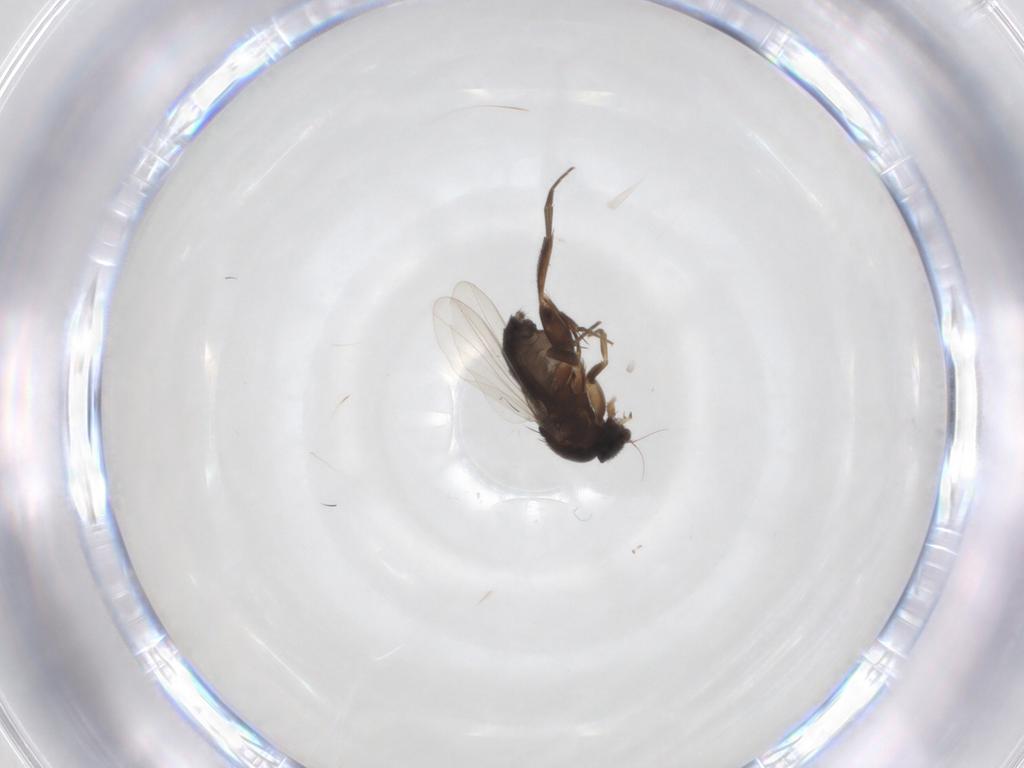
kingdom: Animalia
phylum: Arthropoda
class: Insecta
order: Diptera
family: Phoridae
